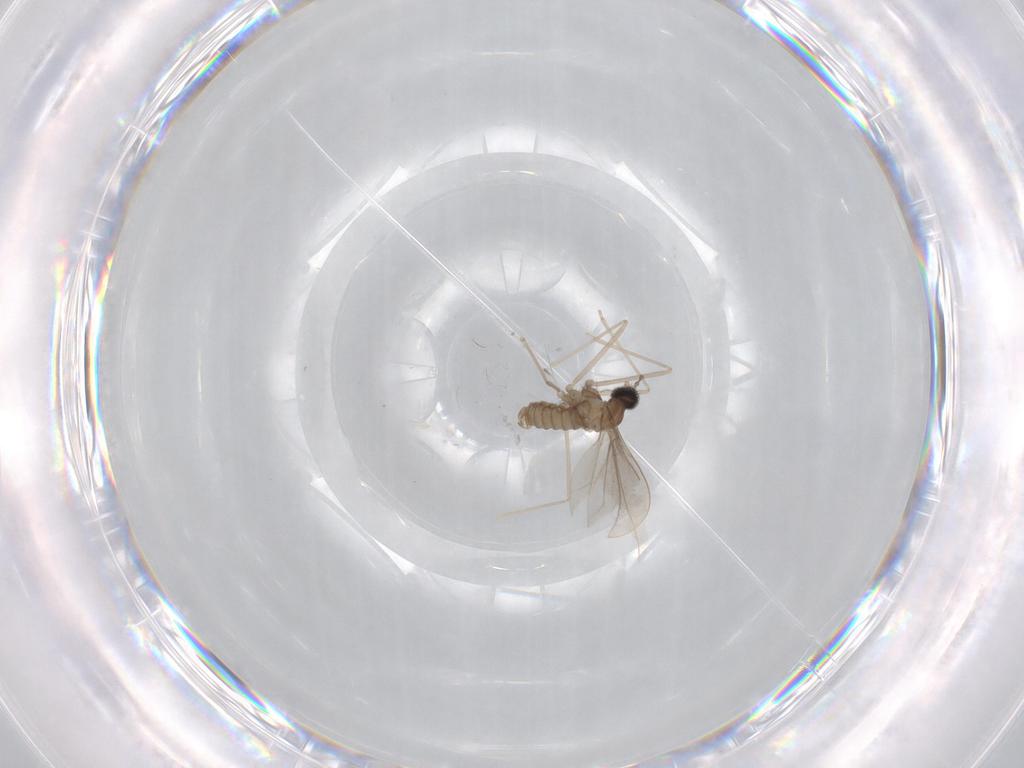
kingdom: Animalia
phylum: Arthropoda
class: Insecta
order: Diptera
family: Cecidomyiidae
